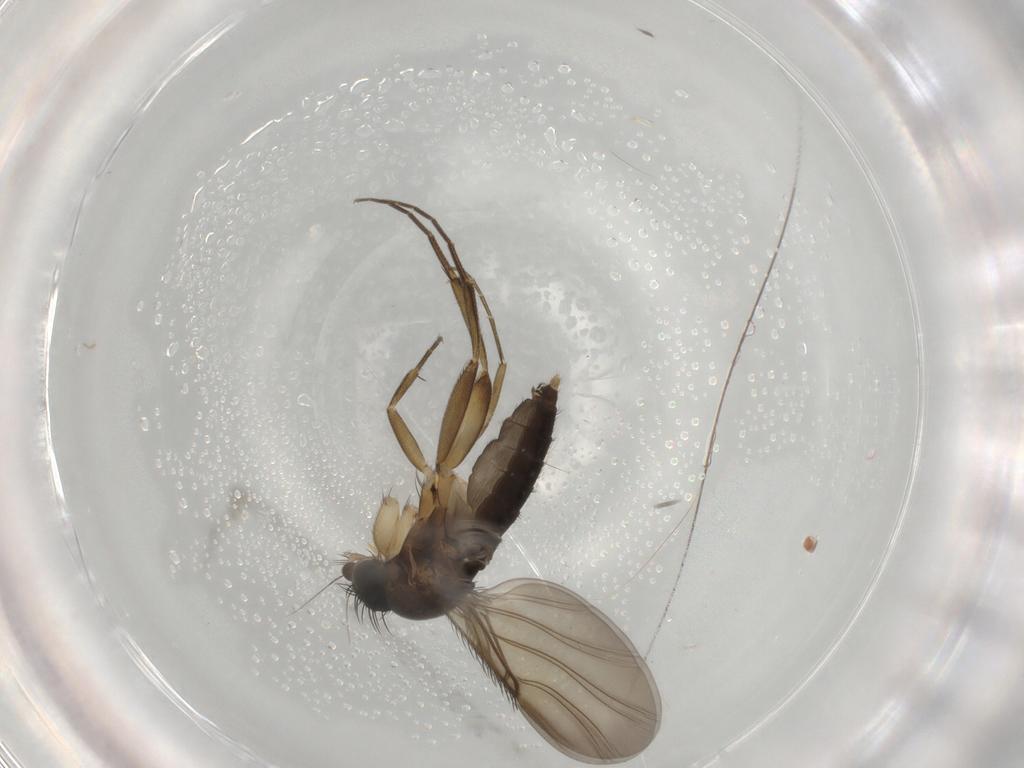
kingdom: Animalia
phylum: Arthropoda
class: Insecta
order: Diptera
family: Phoridae
